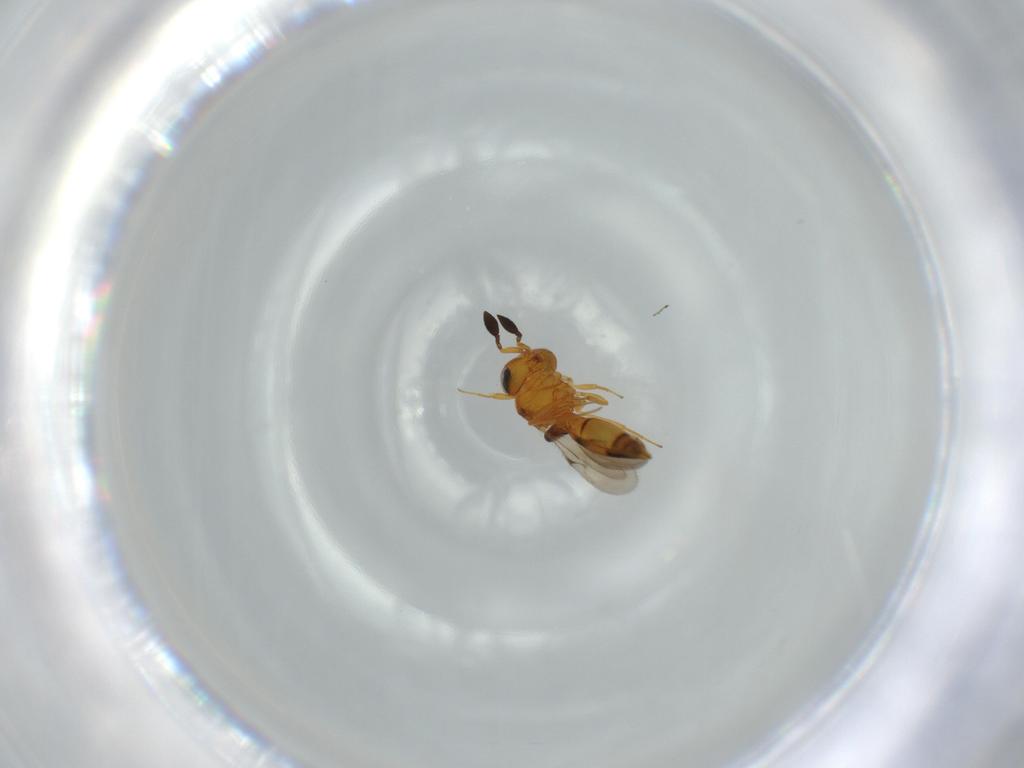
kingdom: Animalia
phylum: Arthropoda
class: Insecta
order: Hymenoptera
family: Scelionidae
